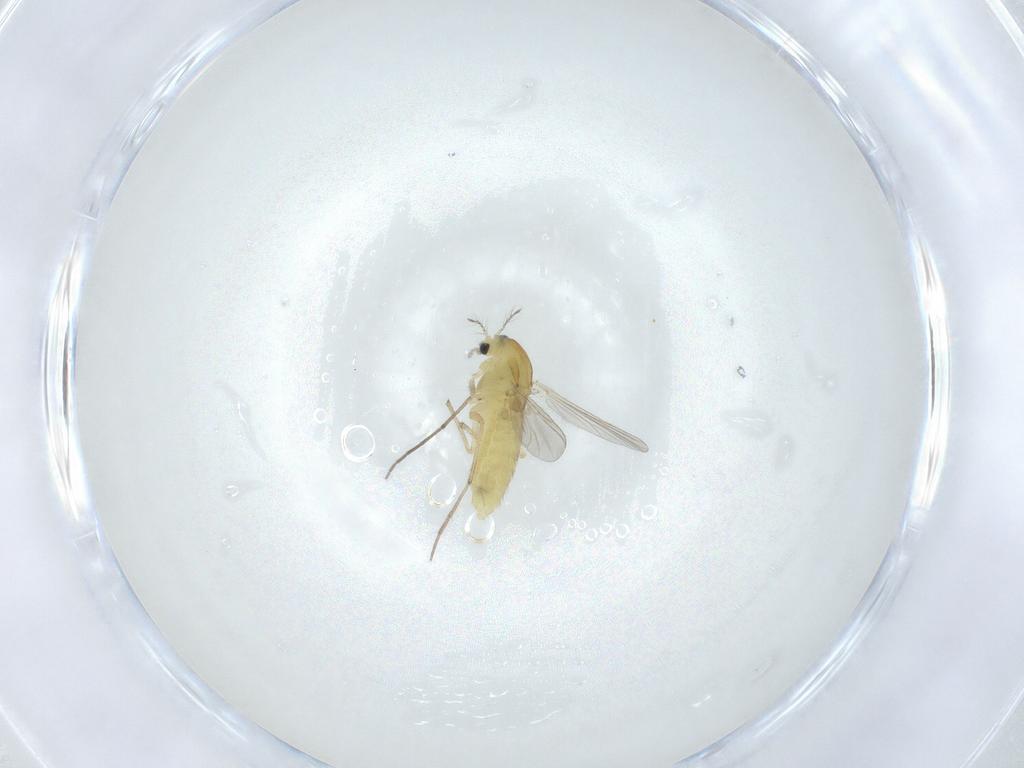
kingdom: Animalia
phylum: Arthropoda
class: Insecta
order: Diptera
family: Chironomidae
